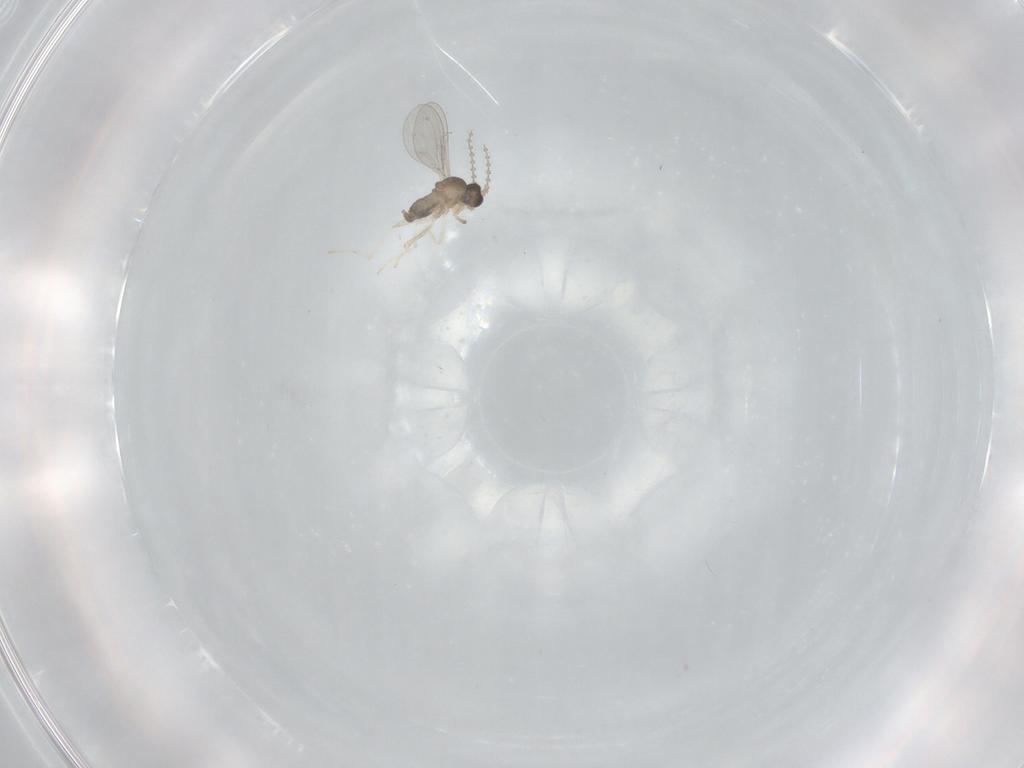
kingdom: Animalia
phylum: Arthropoda
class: Insecta
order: Diptera
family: Cecidomyiidae
